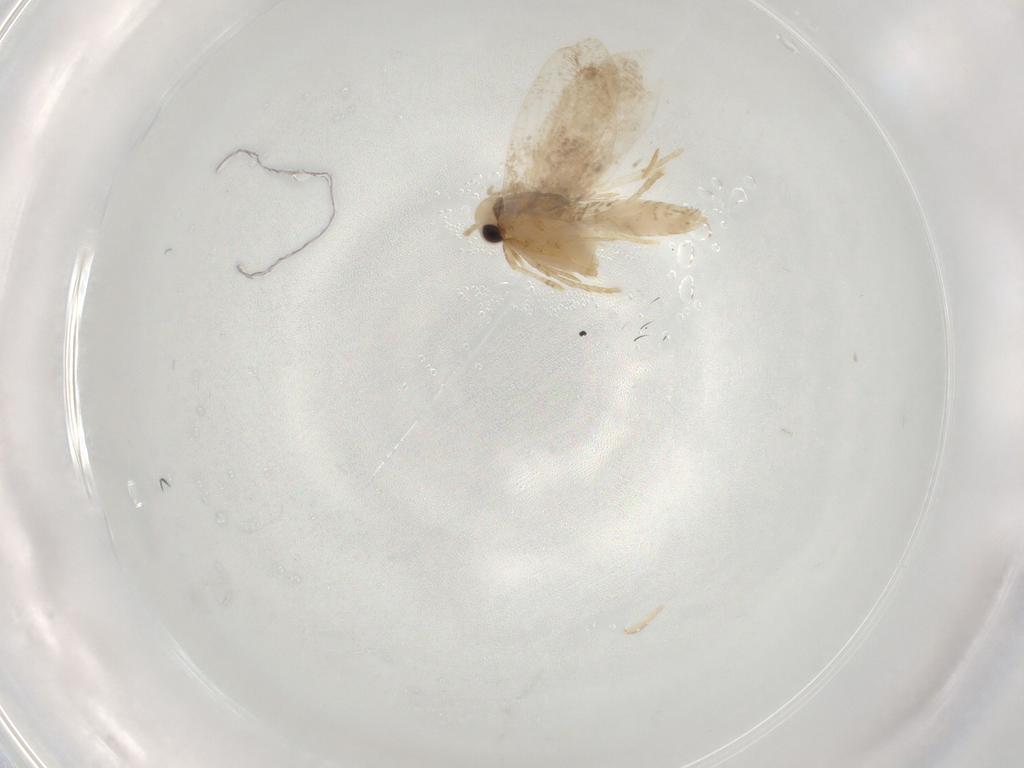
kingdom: Animalia
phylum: Arthropoda
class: Insecta
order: Lepidoptera
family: Psychidae
